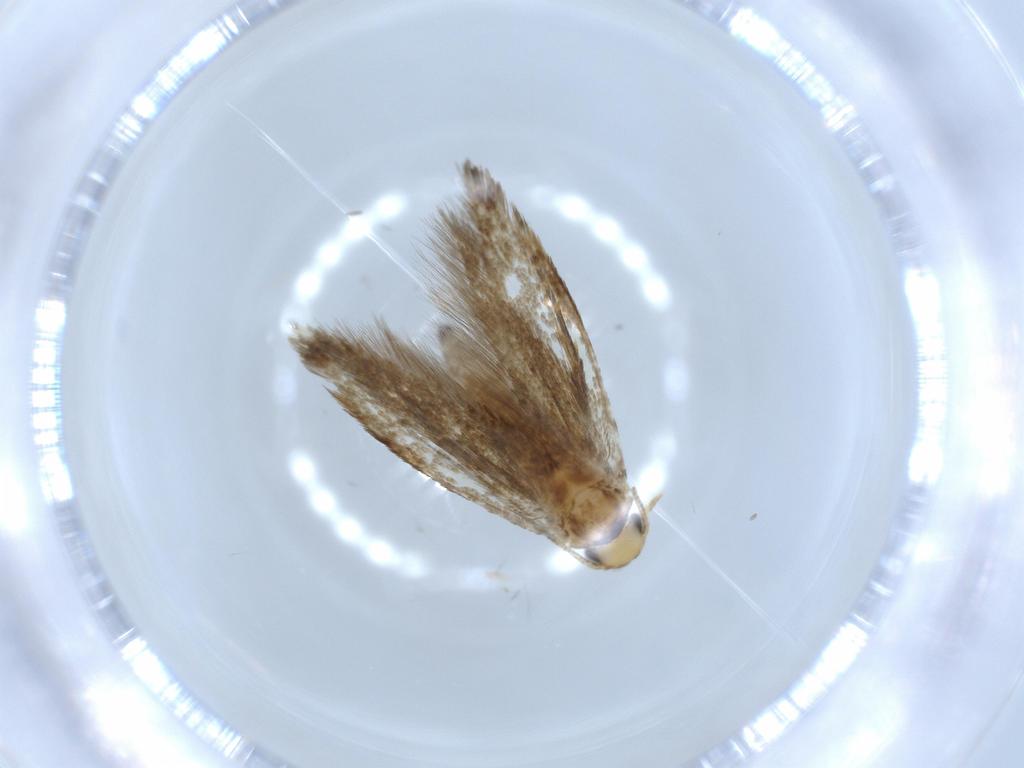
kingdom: Animalia
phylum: Arthropoda
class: Insecta
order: Lepidoptera
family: Tineidae
